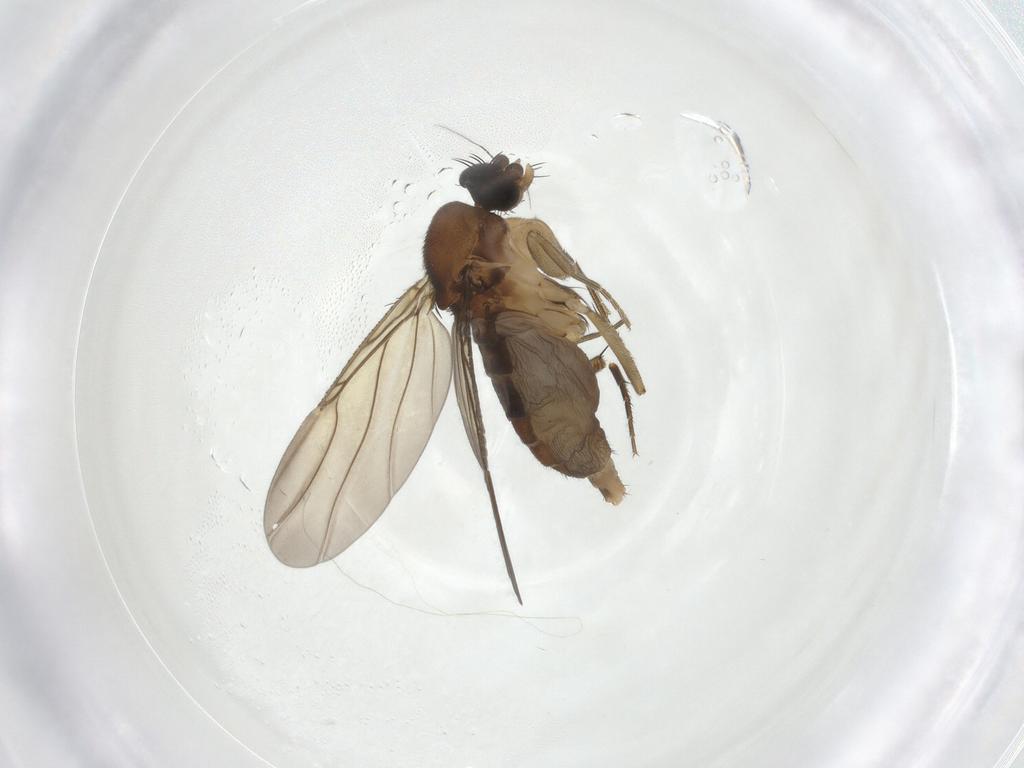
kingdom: Animalia
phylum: Arthropoda
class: Insecta
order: Diptera
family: Phoridae
